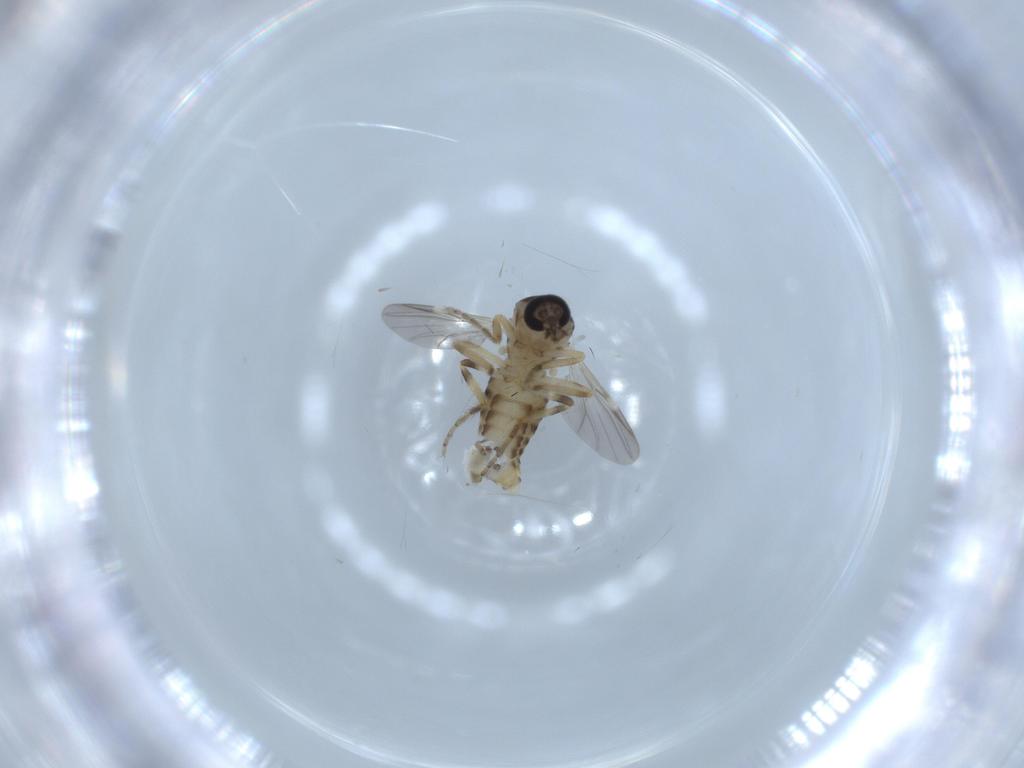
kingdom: Animalia
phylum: Arthropoda
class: Insecta
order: Diptera
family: Ceratopogonidae
